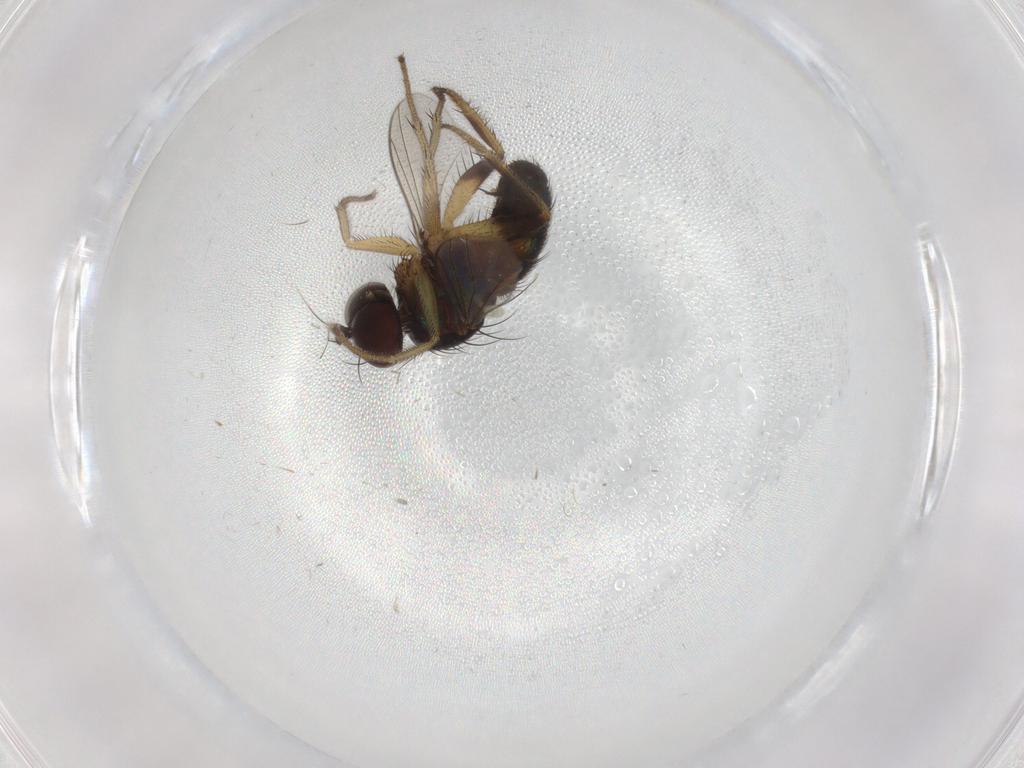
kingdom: Animalia
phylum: Arthropoda
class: Insecta
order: Diptera
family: Dolichopodidae
